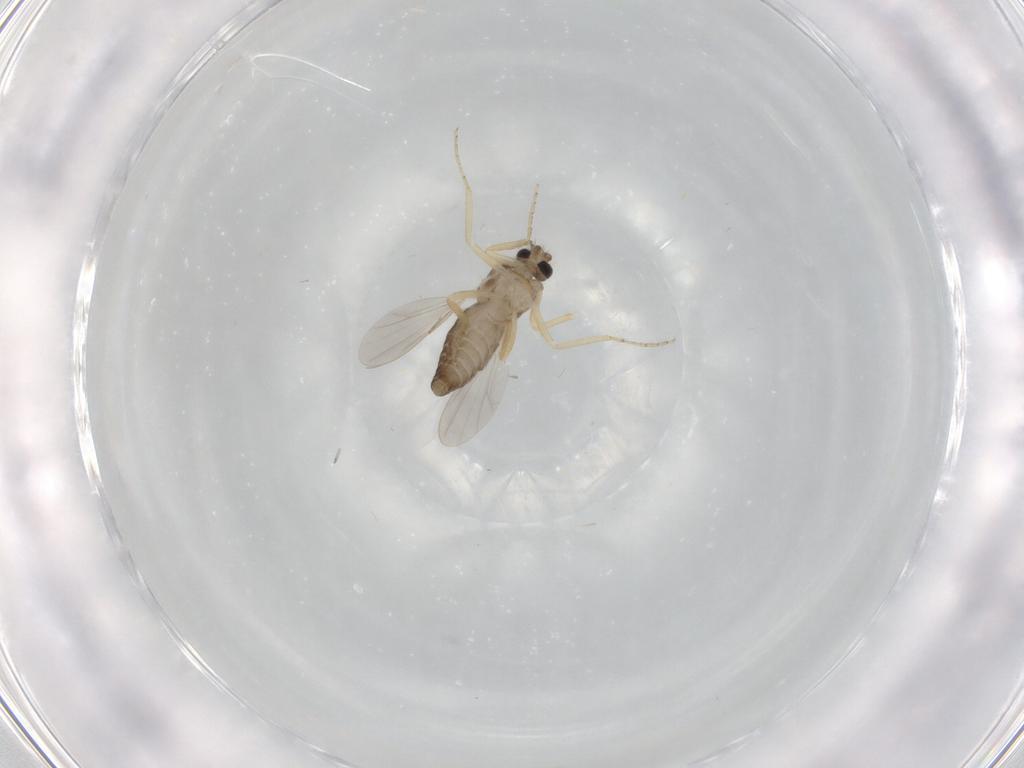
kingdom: Animalia
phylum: Arthropoda
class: Insecta
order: Diptera
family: Ceratopogonidae
